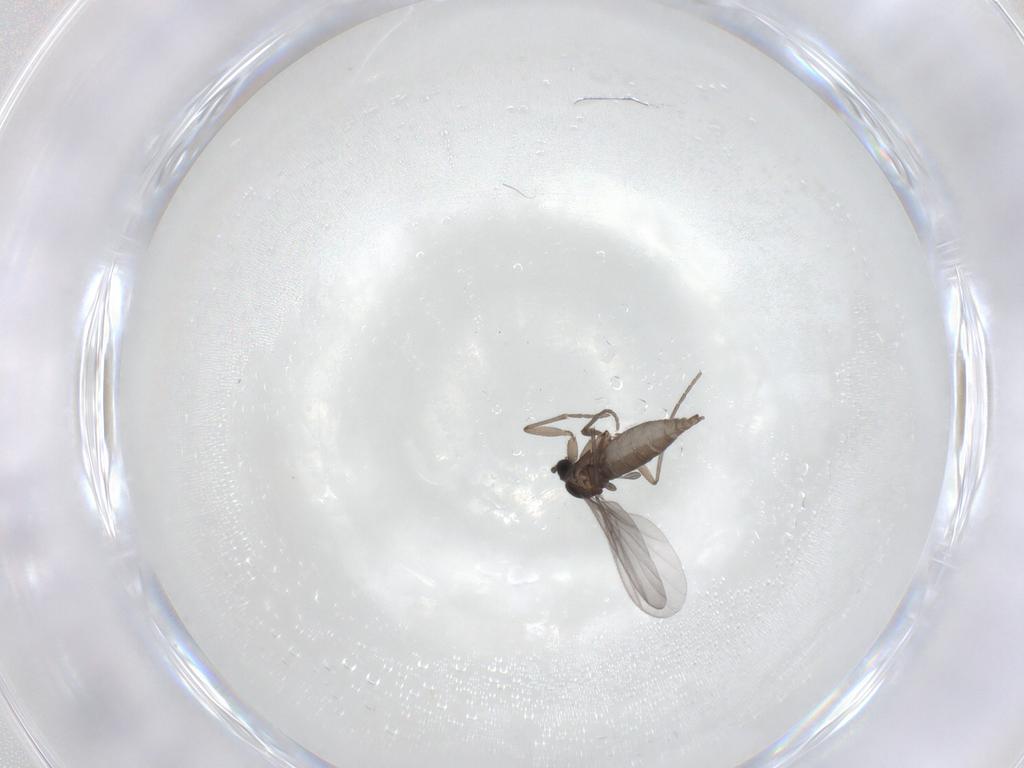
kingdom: Animalia
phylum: Arthropoda
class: Insecta
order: Diptera
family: Sciaridae
